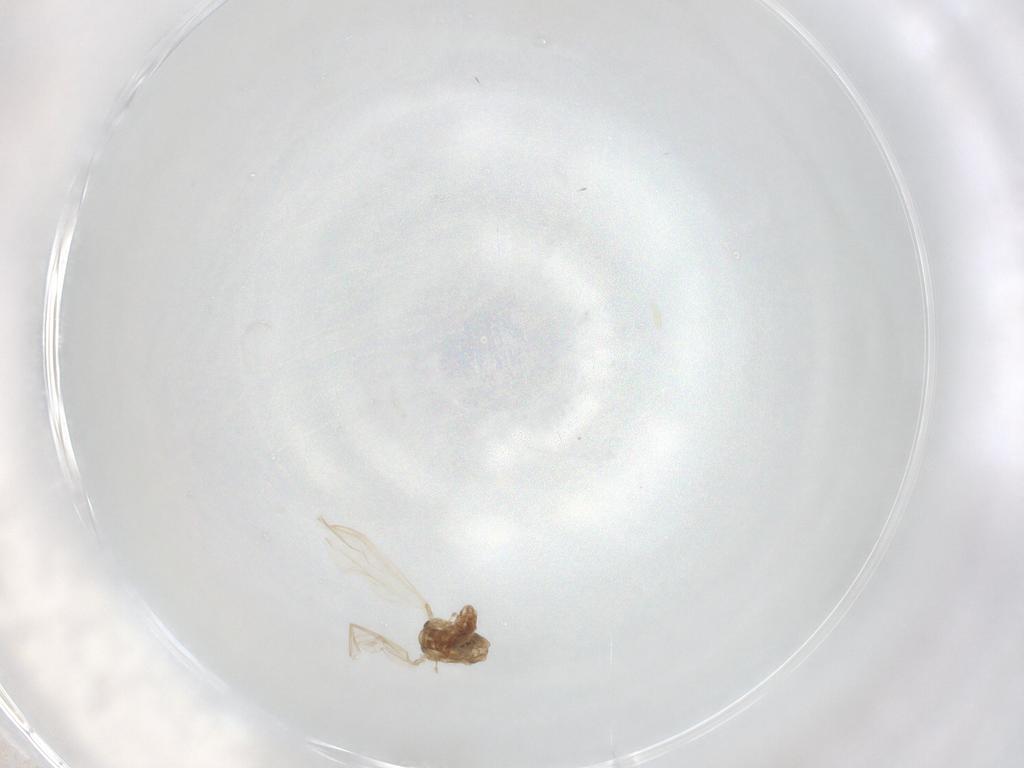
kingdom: Animalia
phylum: Arthropoda
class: Insecta
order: Diptera
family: Chironomidae
